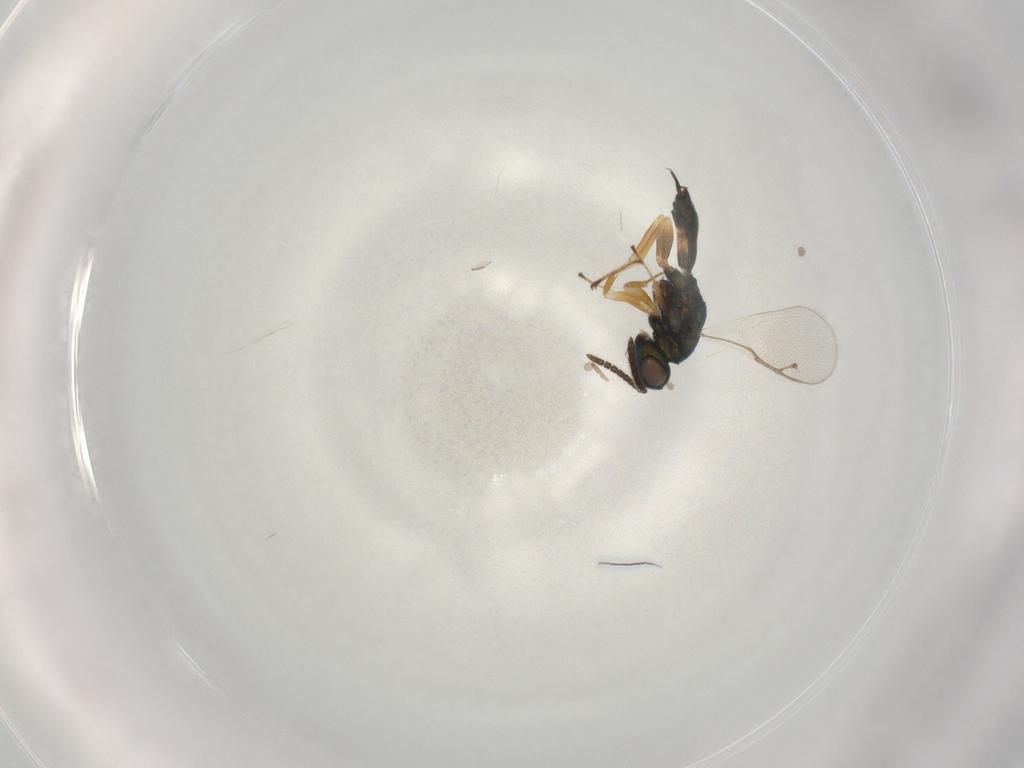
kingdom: Animalia
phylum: Arthropoda
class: Insecta
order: Hymenoptera
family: Pteromalidae
